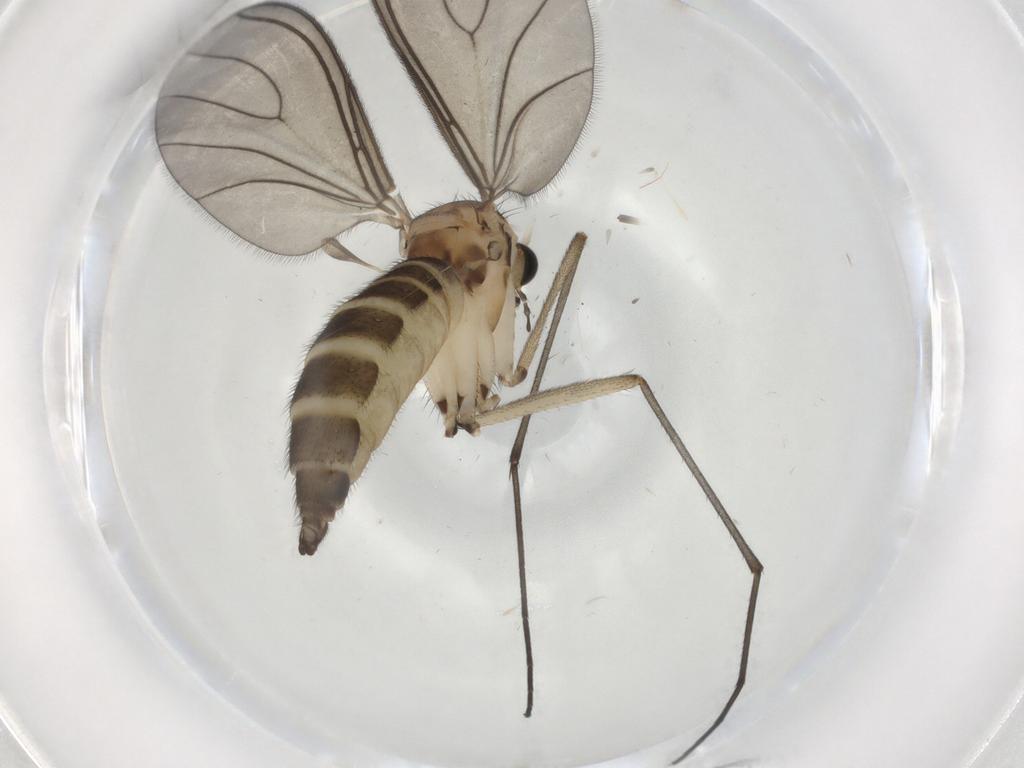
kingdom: Animalia
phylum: Arthropoda
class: Insecta
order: Diptera
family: Sciaridae
